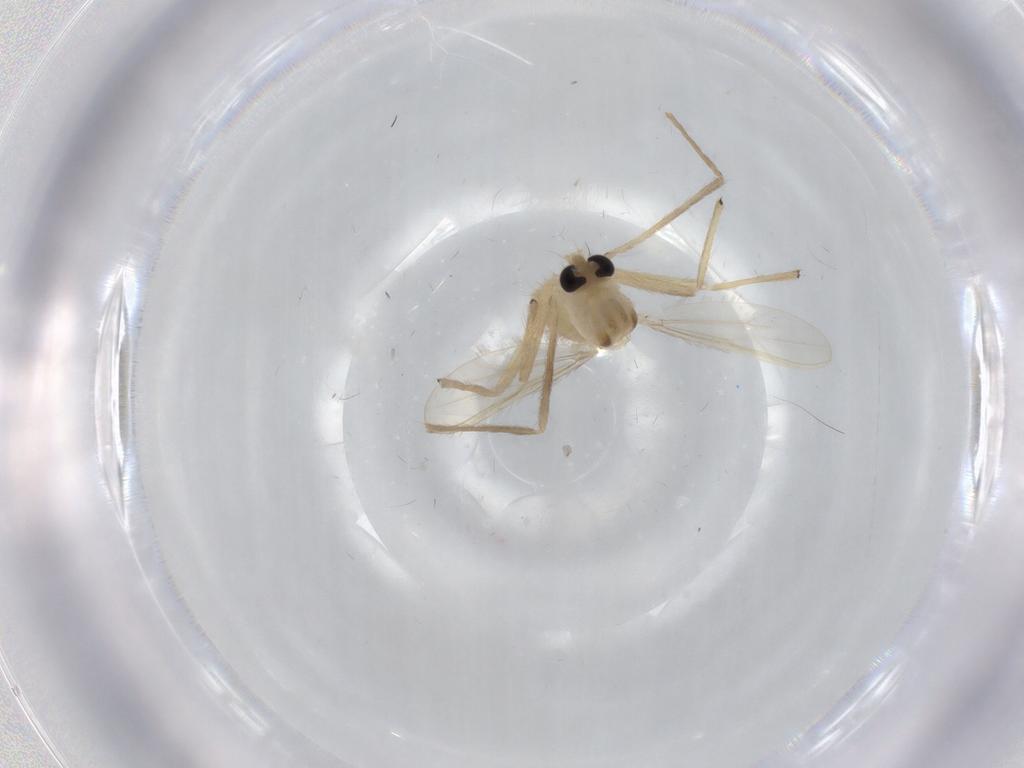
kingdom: Animalia
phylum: Arthropoda
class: Insecta
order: Diptera
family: Chironomidae
